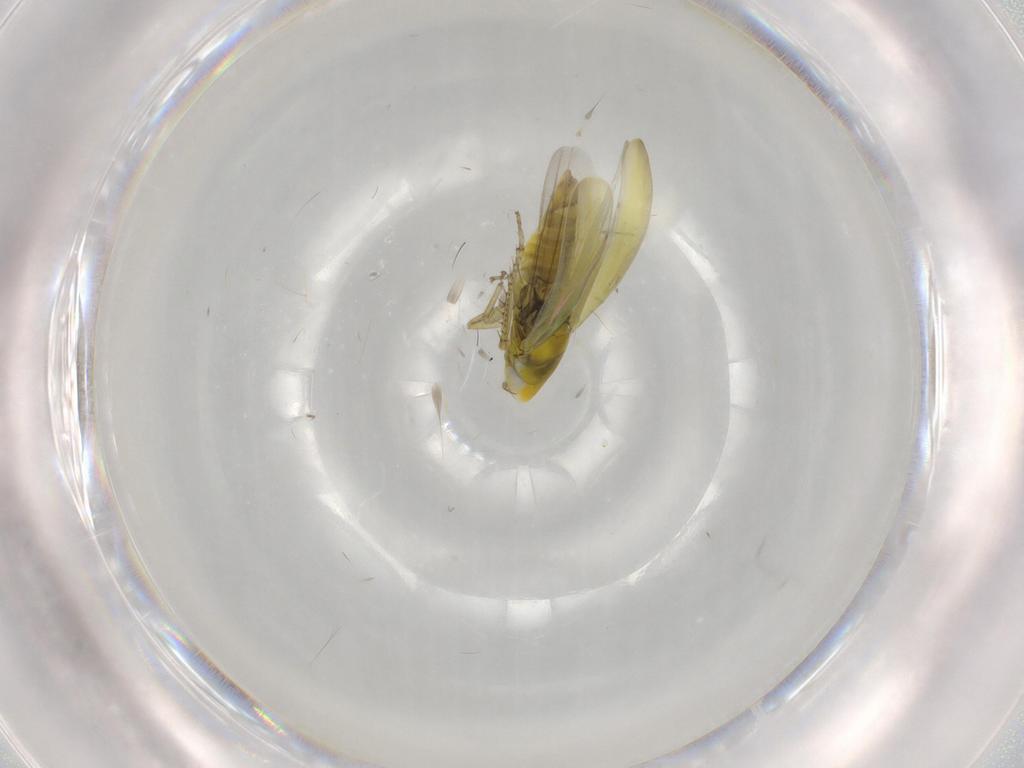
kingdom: Animalia
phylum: Arthropoda
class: Insecta
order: Hemiptera
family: Cicadellidae
